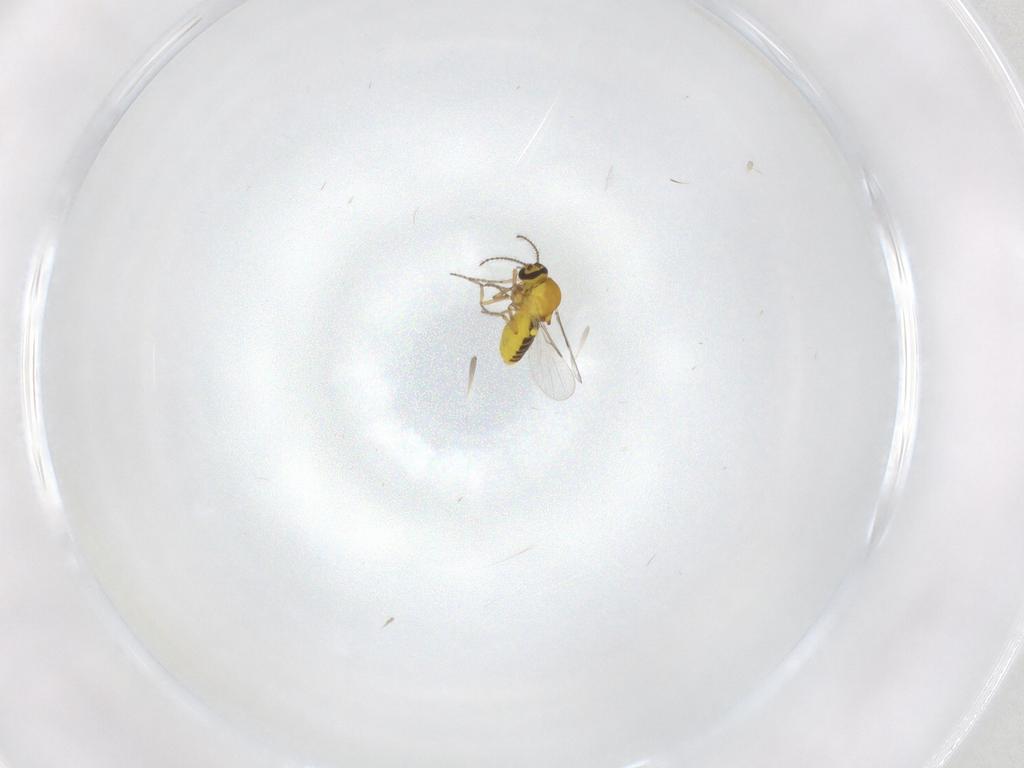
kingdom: Animalia
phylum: Arthropoda
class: Insecta
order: Diptera
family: Ceratopogonidae
